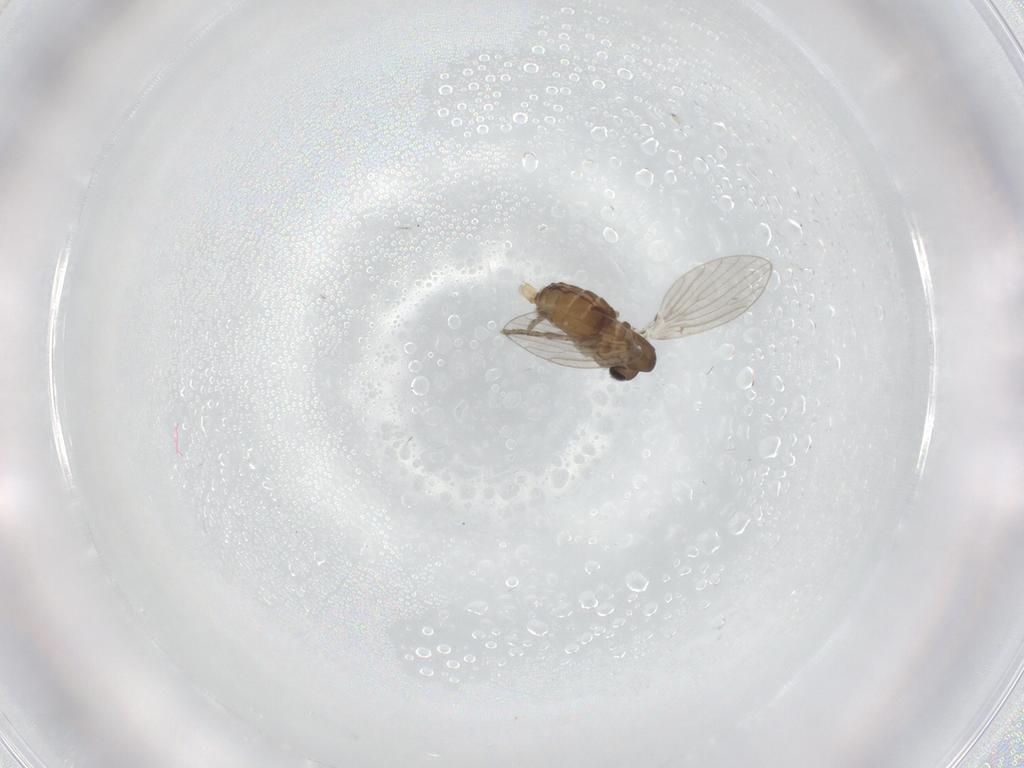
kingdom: Animalia
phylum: Arthropoda
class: Insecta
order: Diptera
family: Psychodidae
